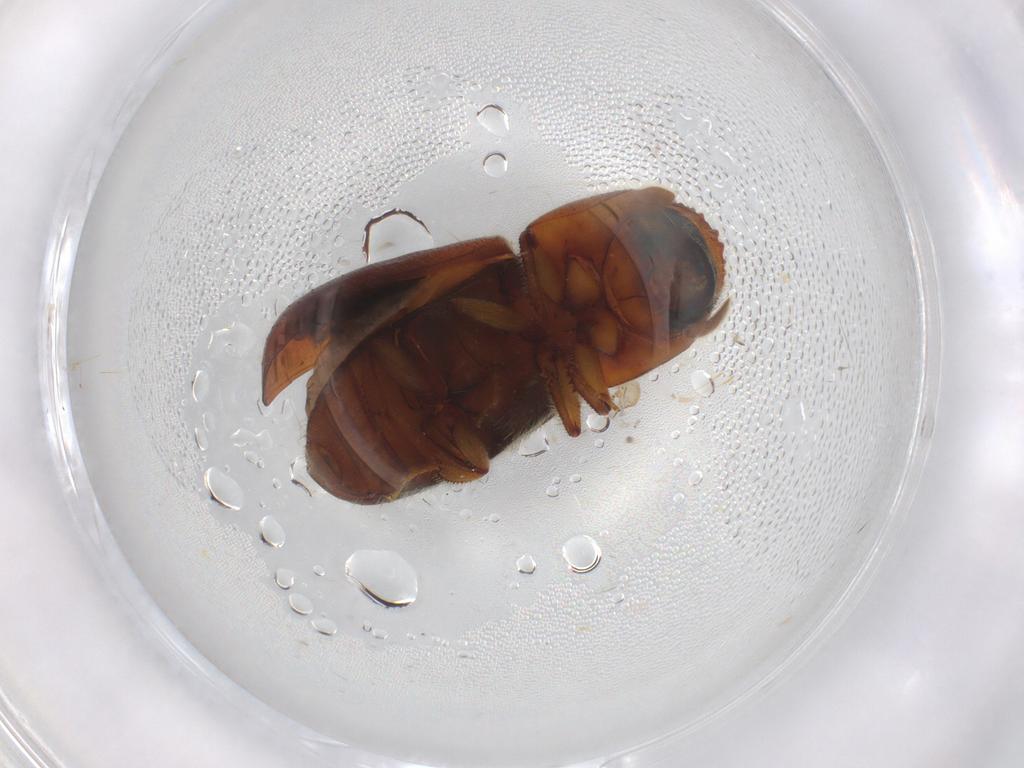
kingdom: Animalia
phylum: Arthropoda
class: Insecta
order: Coleoptera
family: Curculionidae
